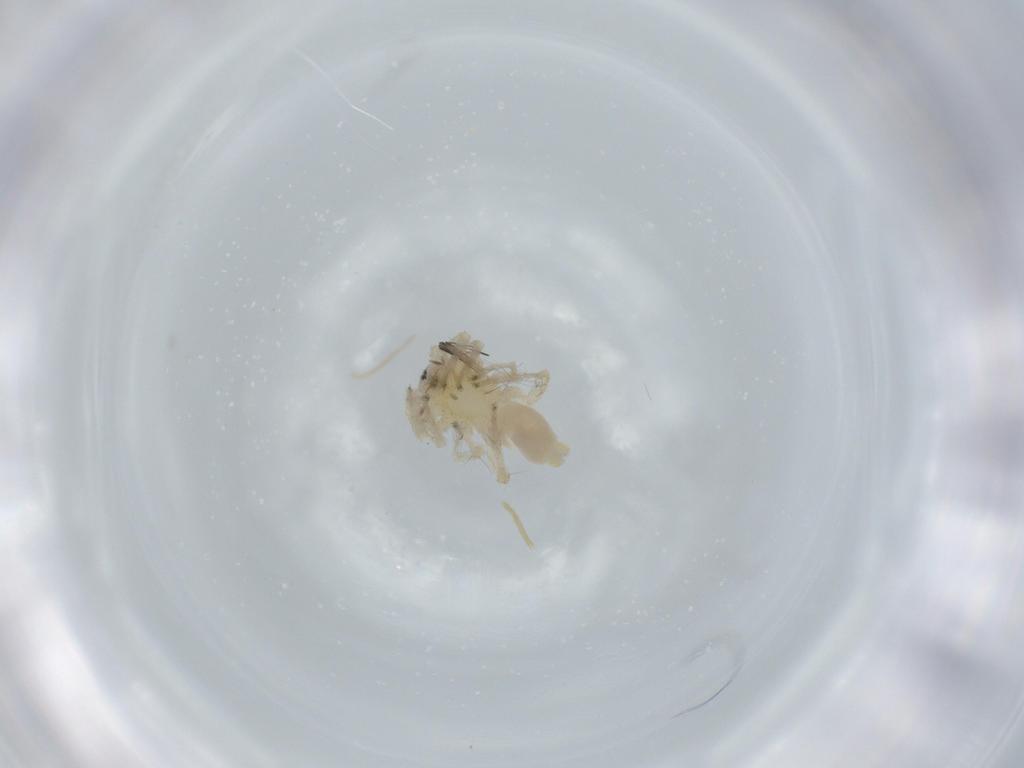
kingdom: Animalia
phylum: Arthropoda
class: Arachnida
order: Araneae
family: Anyphaenidae
